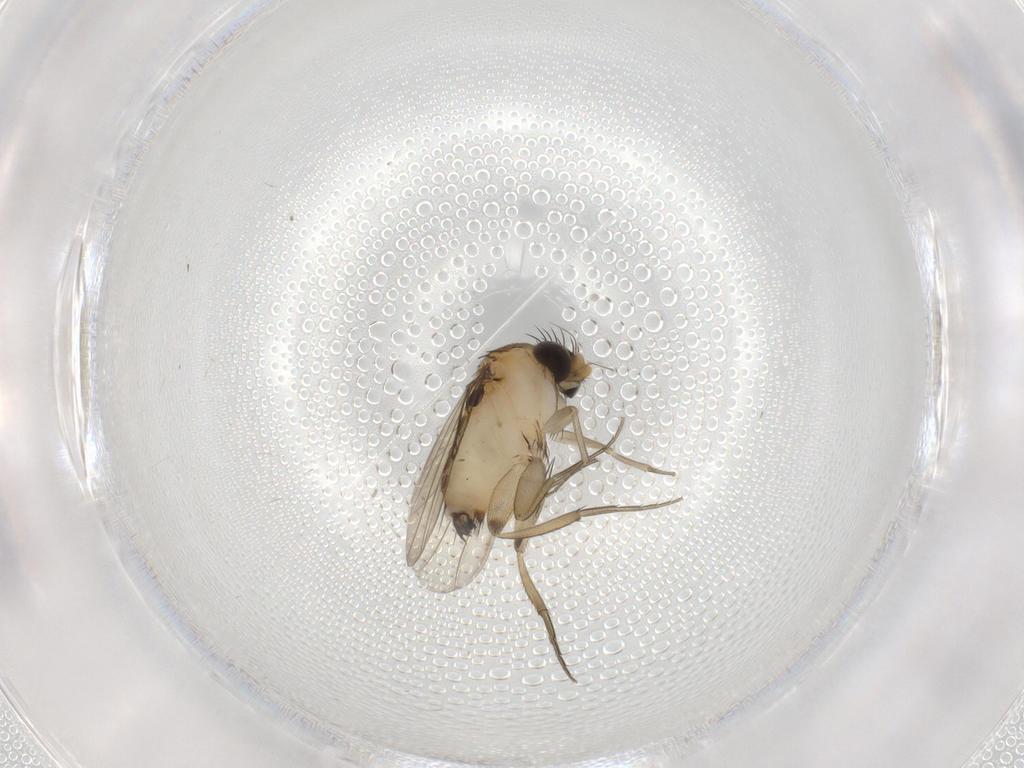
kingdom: Animalia
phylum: Arthropoda
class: Insecta
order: Diptera
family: Phoridae
